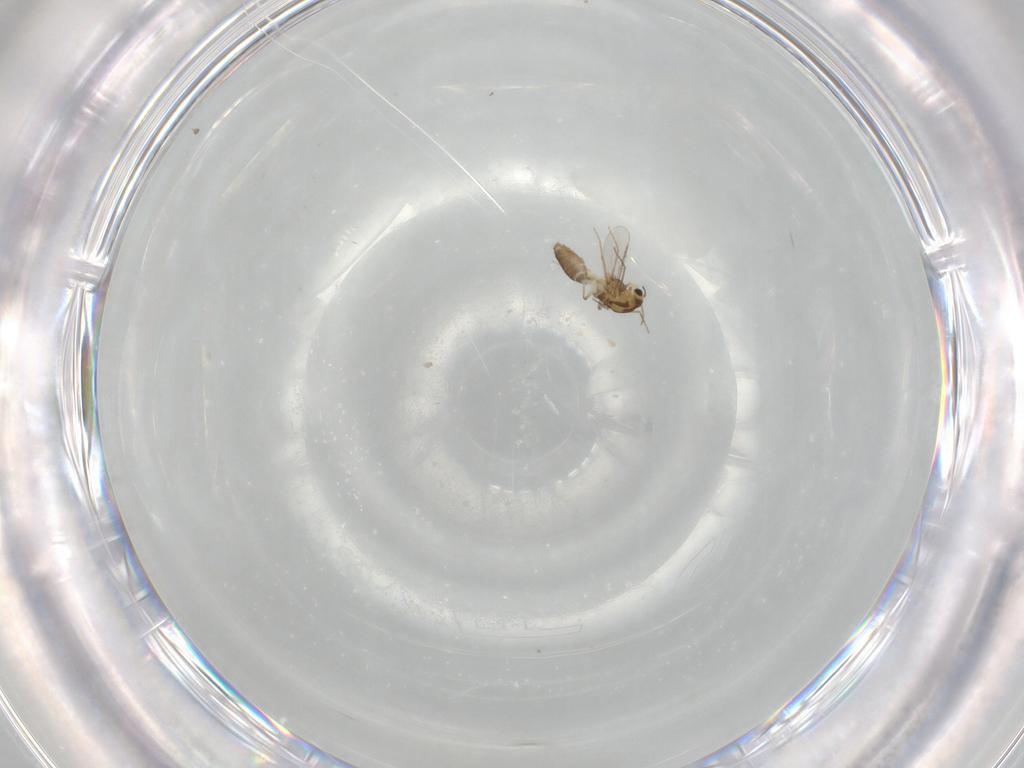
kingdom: Animalia
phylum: Arthropoda
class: Insecta
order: Diptera
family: Chironomidae
